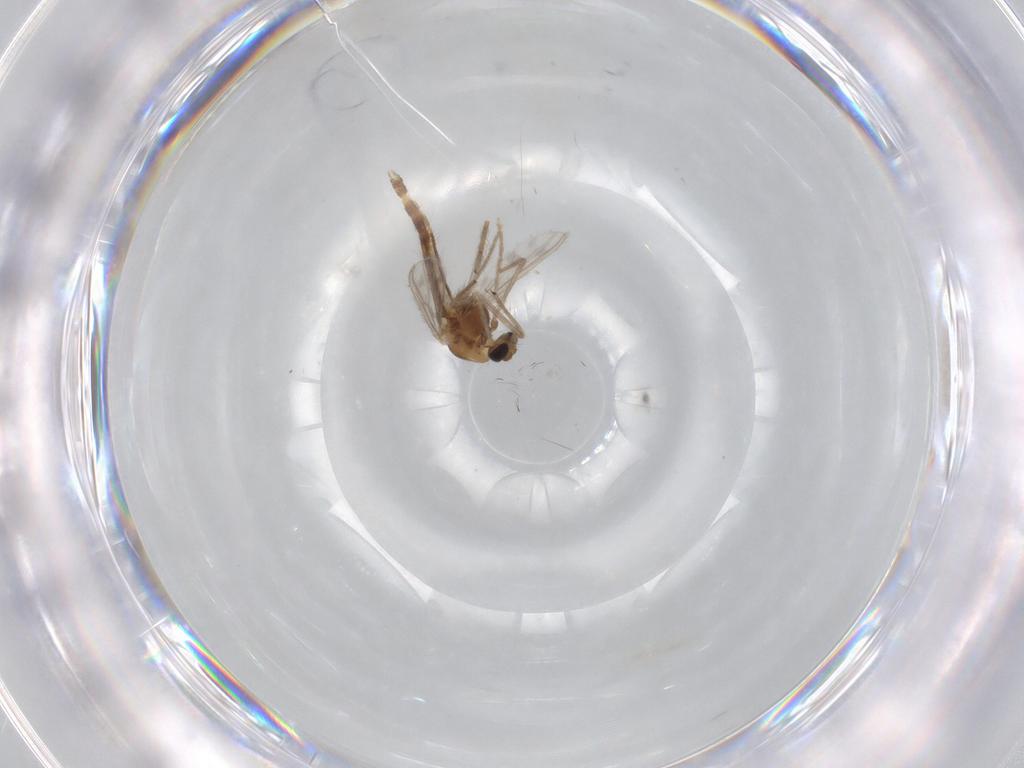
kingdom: Animalia
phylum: Arthropoda
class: Insecta
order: Diptera
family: Chironomidae
